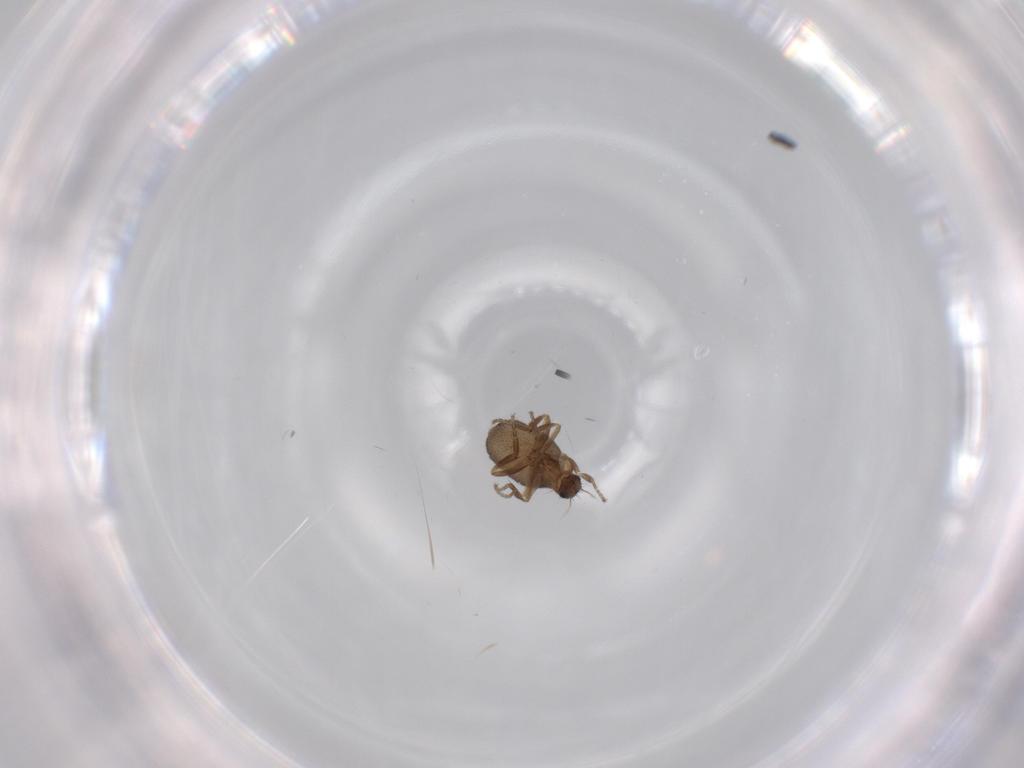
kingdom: Animalia
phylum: Arthropoda
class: Insecta
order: Diptera
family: Phoridae
